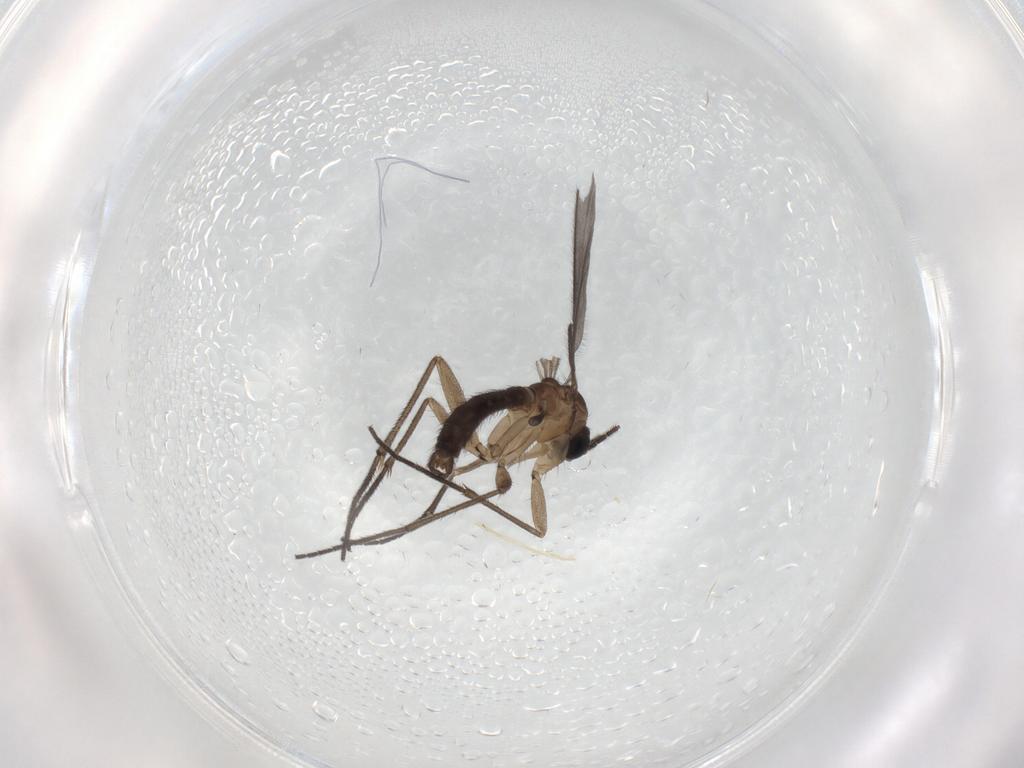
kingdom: Animalia
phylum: Arthropoda
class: Insecta
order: Diptera
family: Sciaridae
